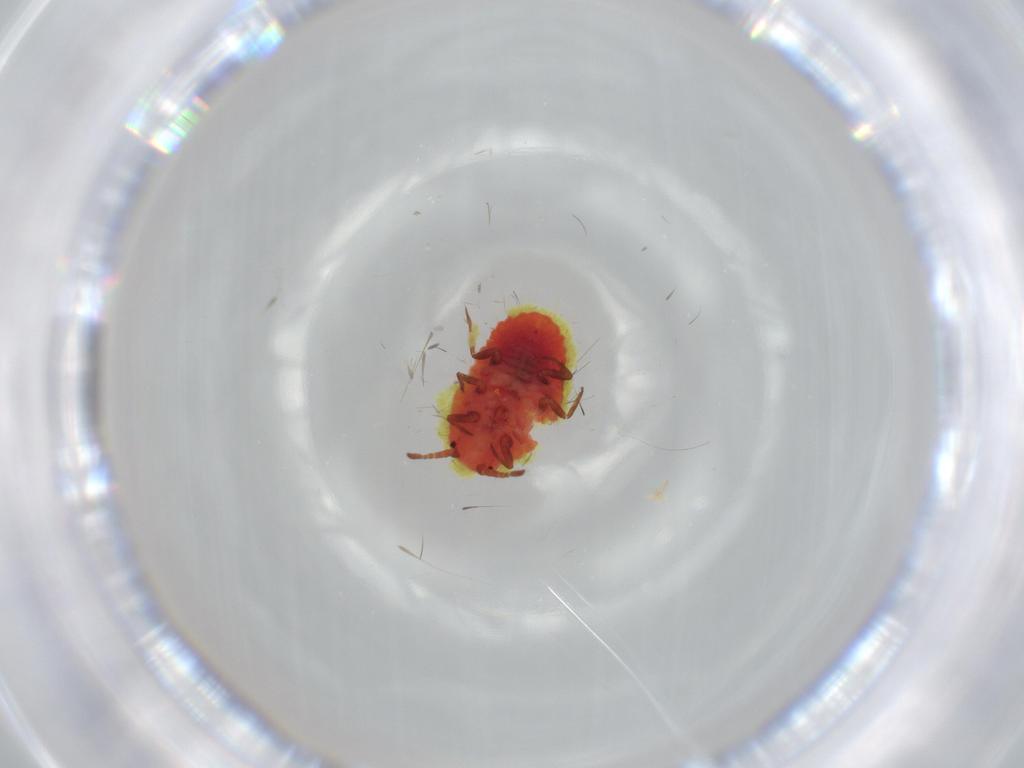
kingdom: Animalia
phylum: Arthropoda
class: Insecta
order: Hemiptera
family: Coccoidea_incertae_sedis
